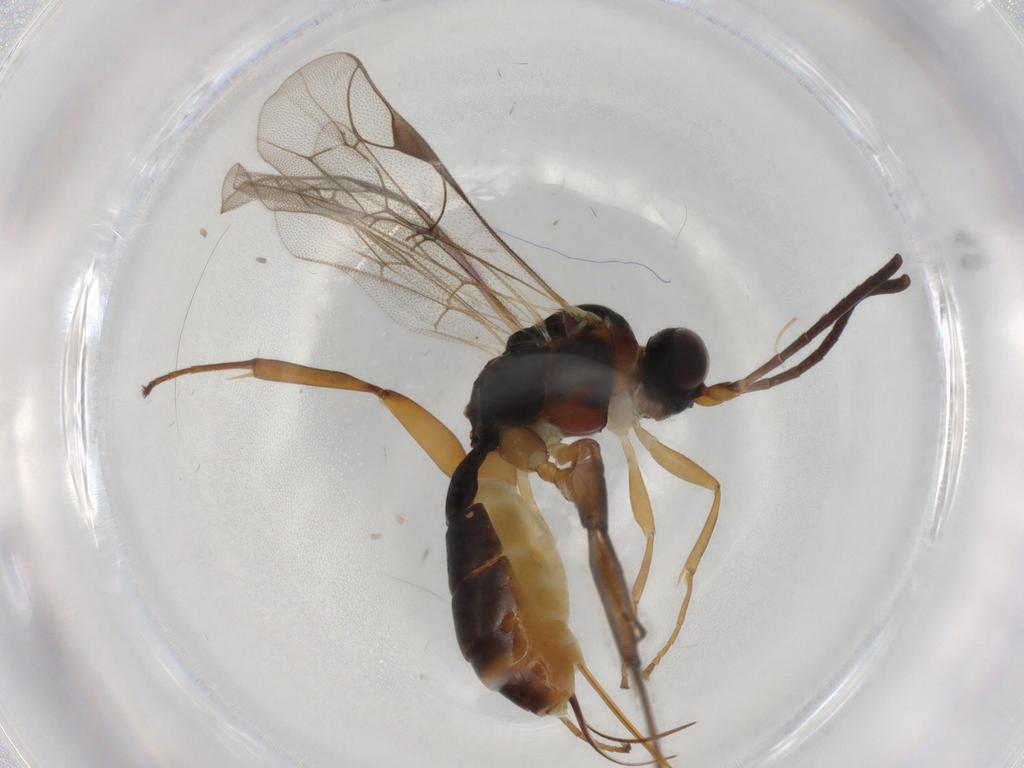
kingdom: Animalia
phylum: Arthropoda
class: Insecta
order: Hymenoptera
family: Ichneumonidae
